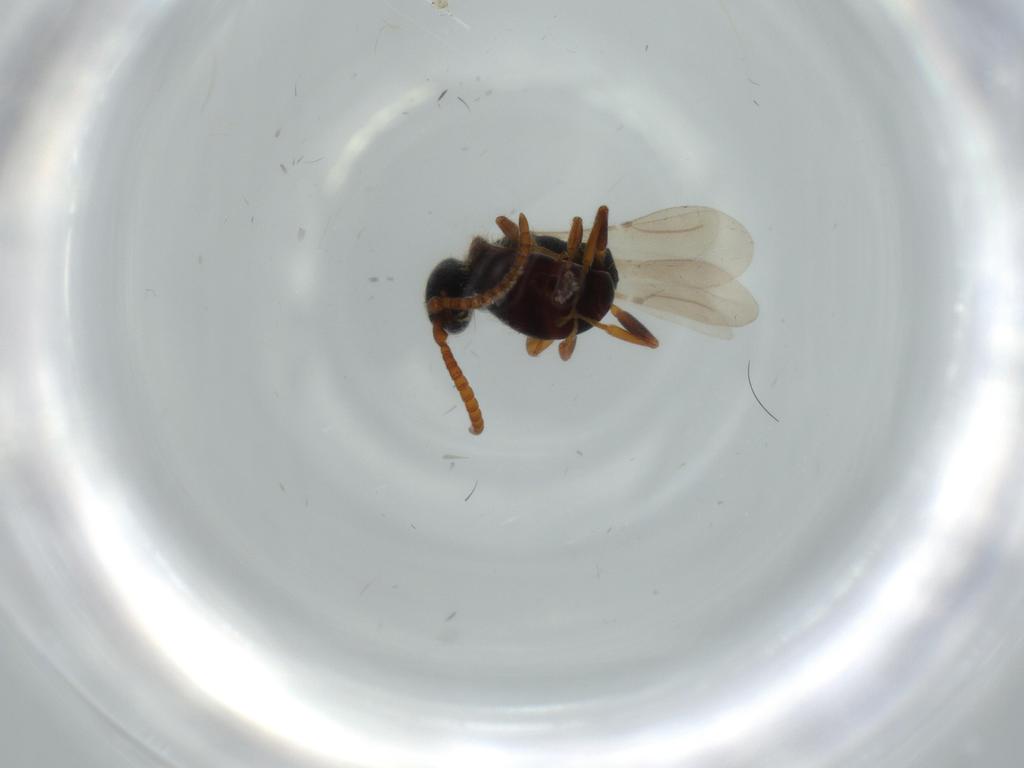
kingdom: Animalia
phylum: Arthropoda
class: Insecta
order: Hymenoptera
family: Bethylidae
